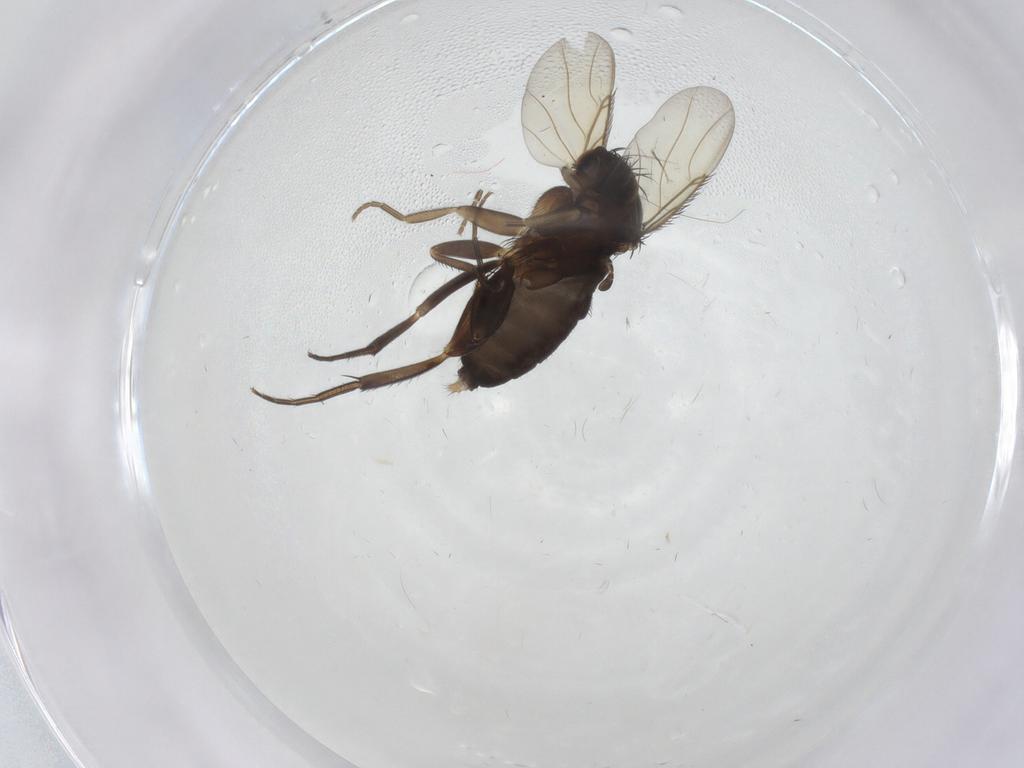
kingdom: Animalia
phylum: Arthropoda
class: Insecta
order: Diptera
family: Phoridae
